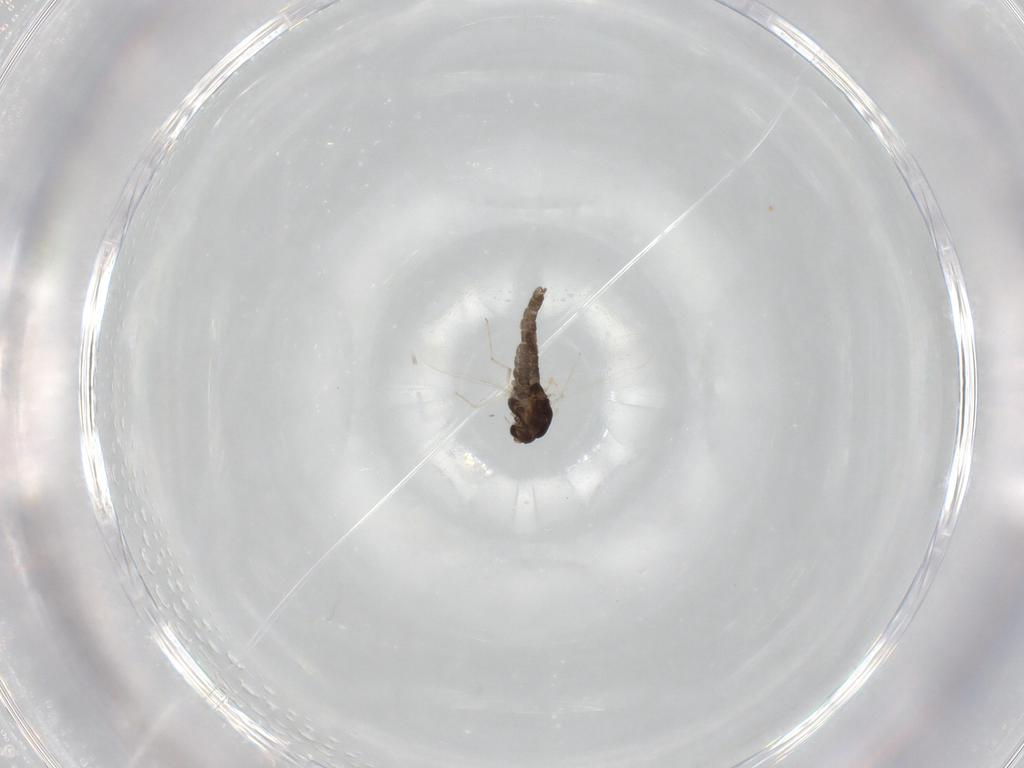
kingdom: Animalia
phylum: Arthropoda
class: Insecta
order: Diptera
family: Chironomidae
